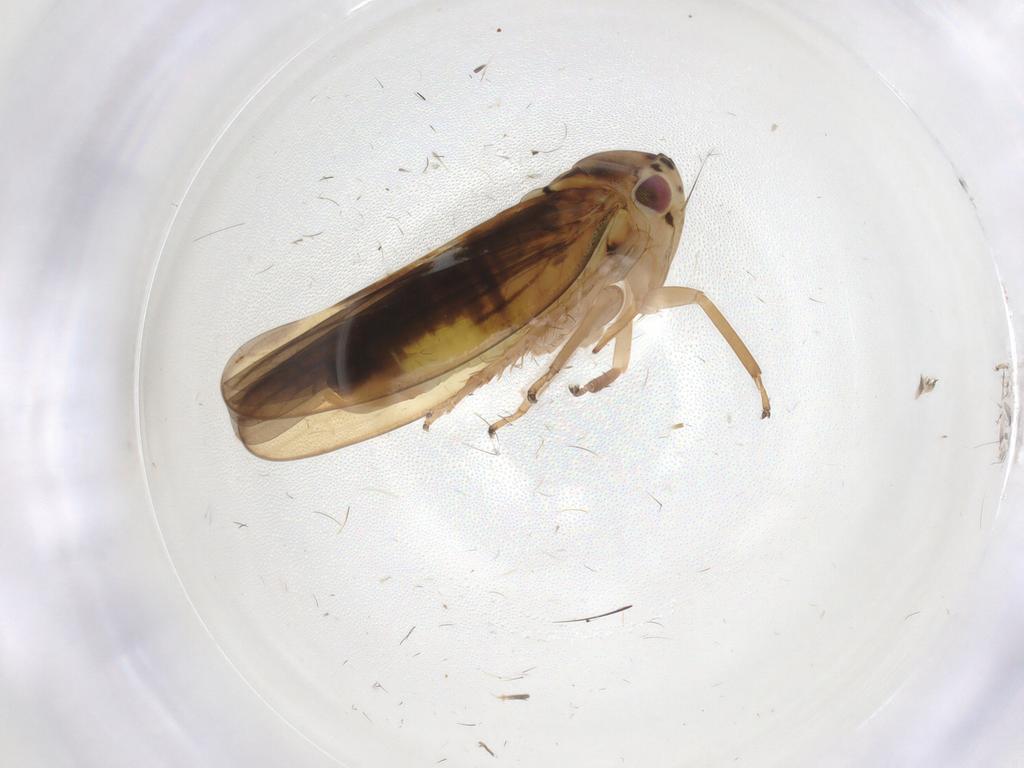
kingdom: Animalia
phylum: Arthropoda
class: Insecta
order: Hemiptera
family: Cicadellidae
